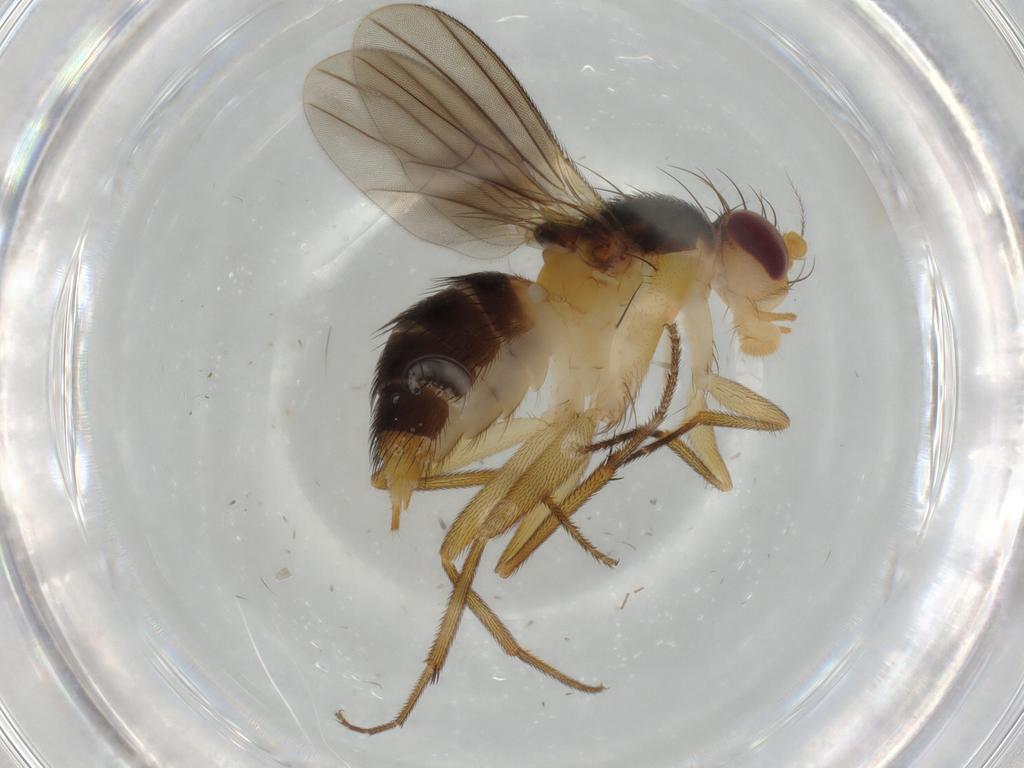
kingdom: Animalia
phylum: Arthropoda
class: Insecta
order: Diptera
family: Clusiidae
